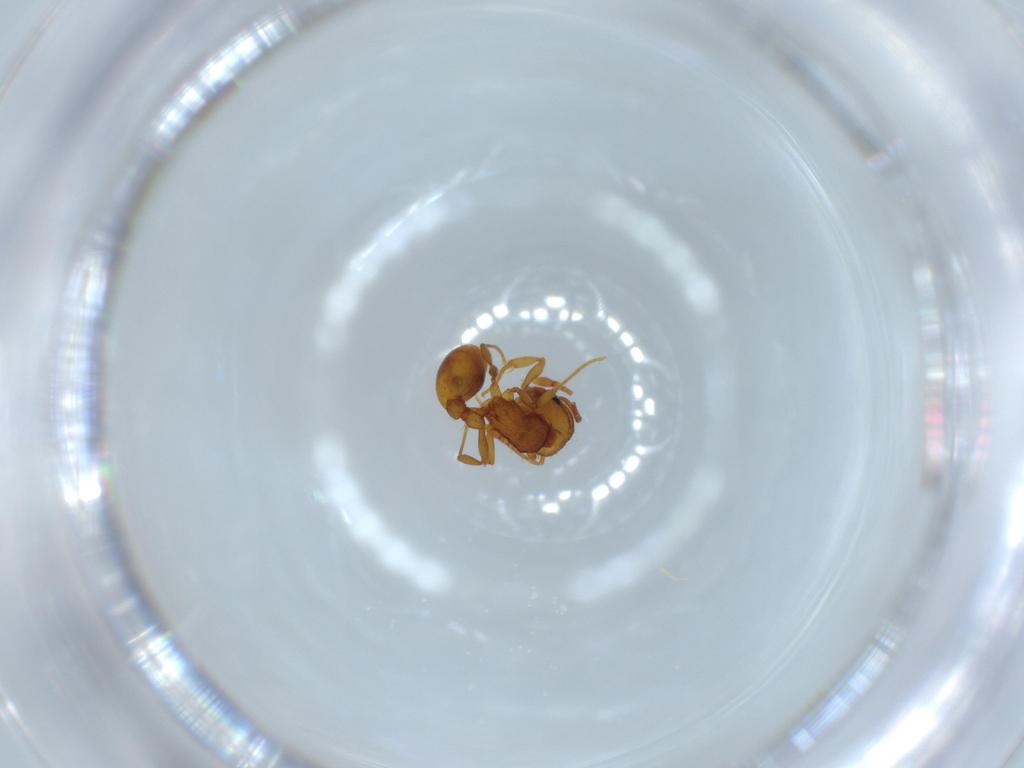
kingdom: Animalia
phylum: Arthropoda
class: Insecta
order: Hymenoptera
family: Formicidae
